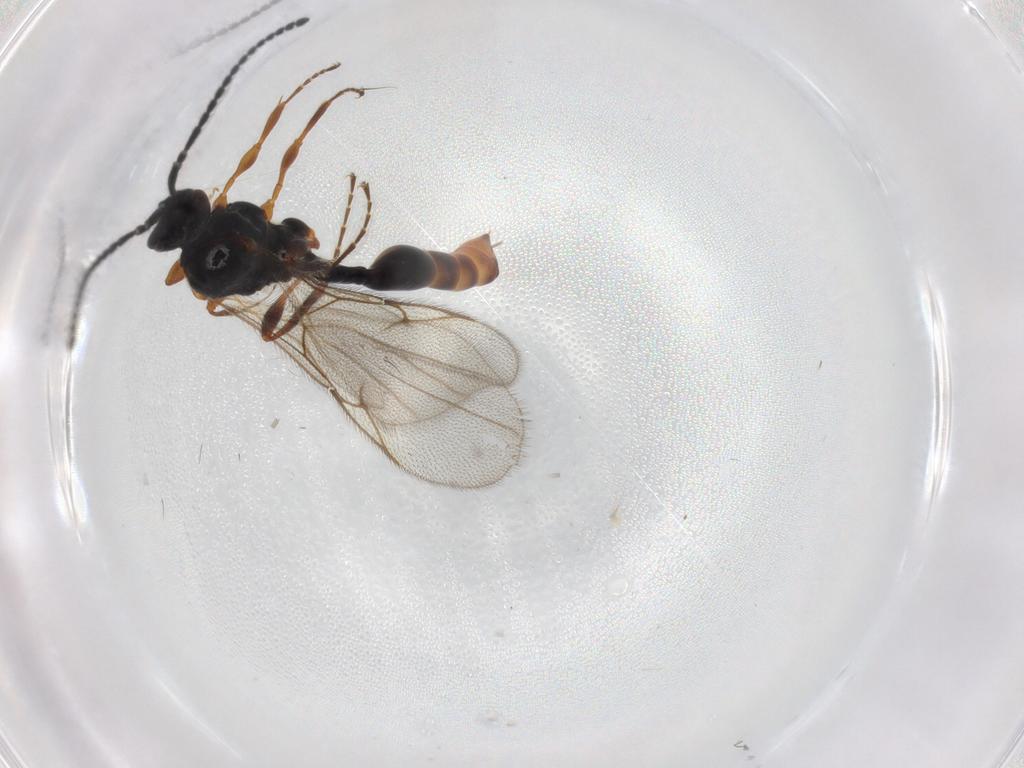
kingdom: Animalia
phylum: Arthropoda
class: Insecta
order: Hymenoptera
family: Diapriidae
